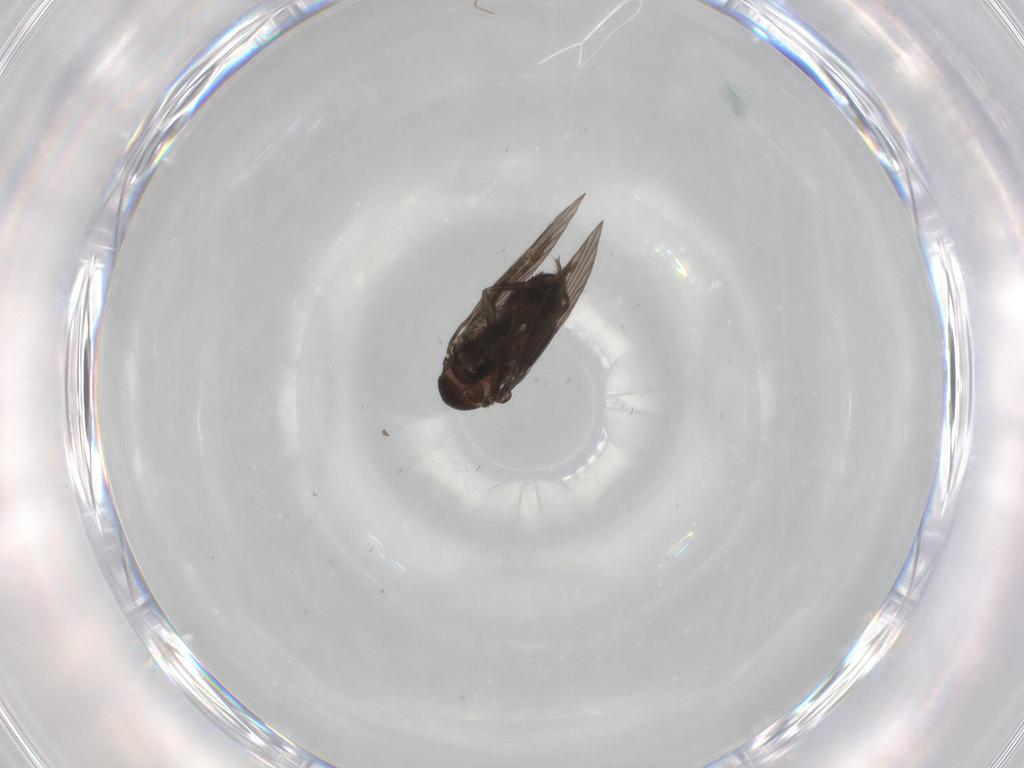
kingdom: Animalia
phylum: Arthropoda
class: Insecta
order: Diptera
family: Psychodidae
